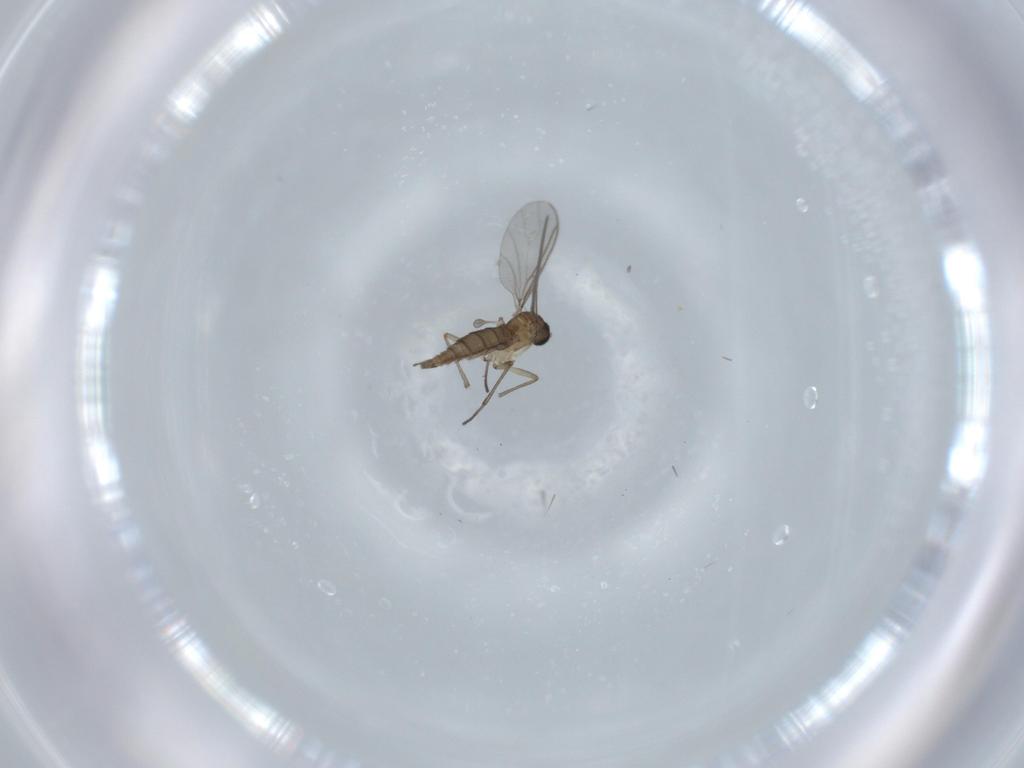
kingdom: Animalia
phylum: Arthropoda
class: Insecta
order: Diptera
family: Sciaridae
